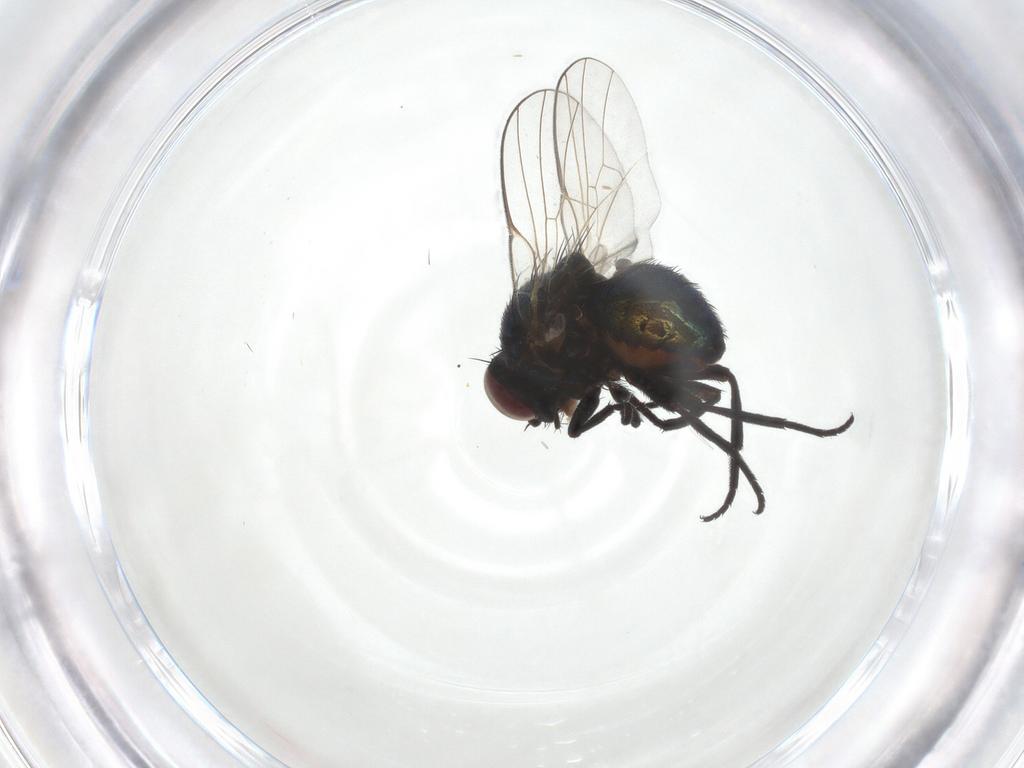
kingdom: Animalia
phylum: Arthropoda
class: Insecta
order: Diptera
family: Agromyzidae
